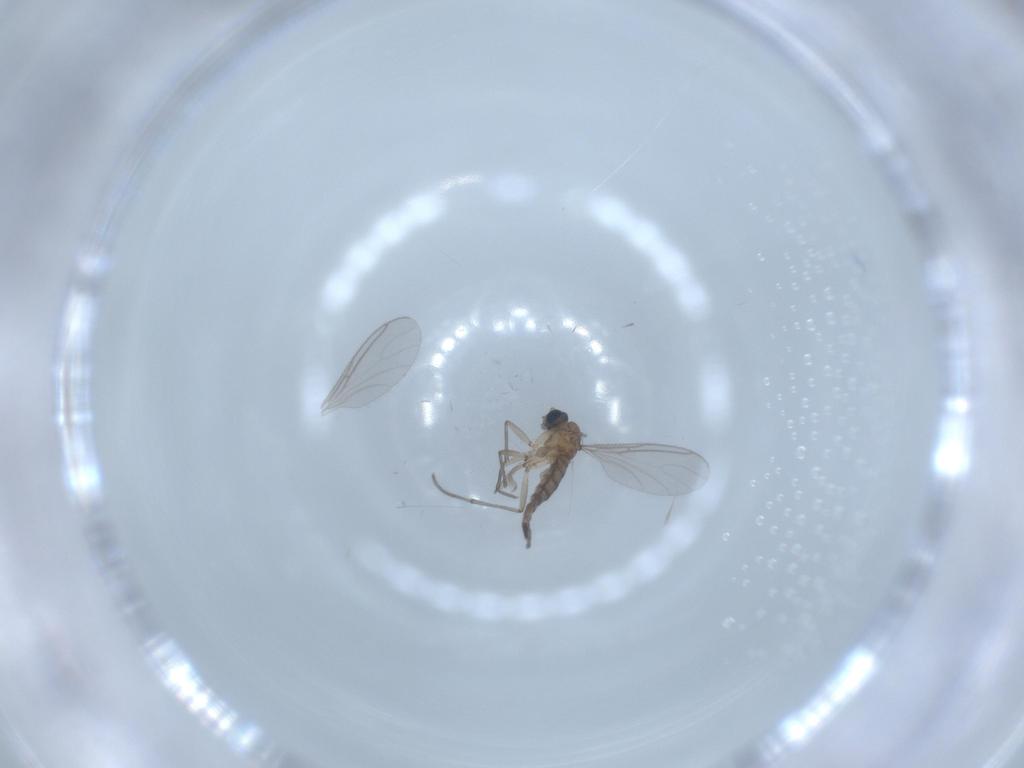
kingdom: Animalia
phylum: Arthropoda
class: Insecta
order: Diptera
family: Sciaridae
